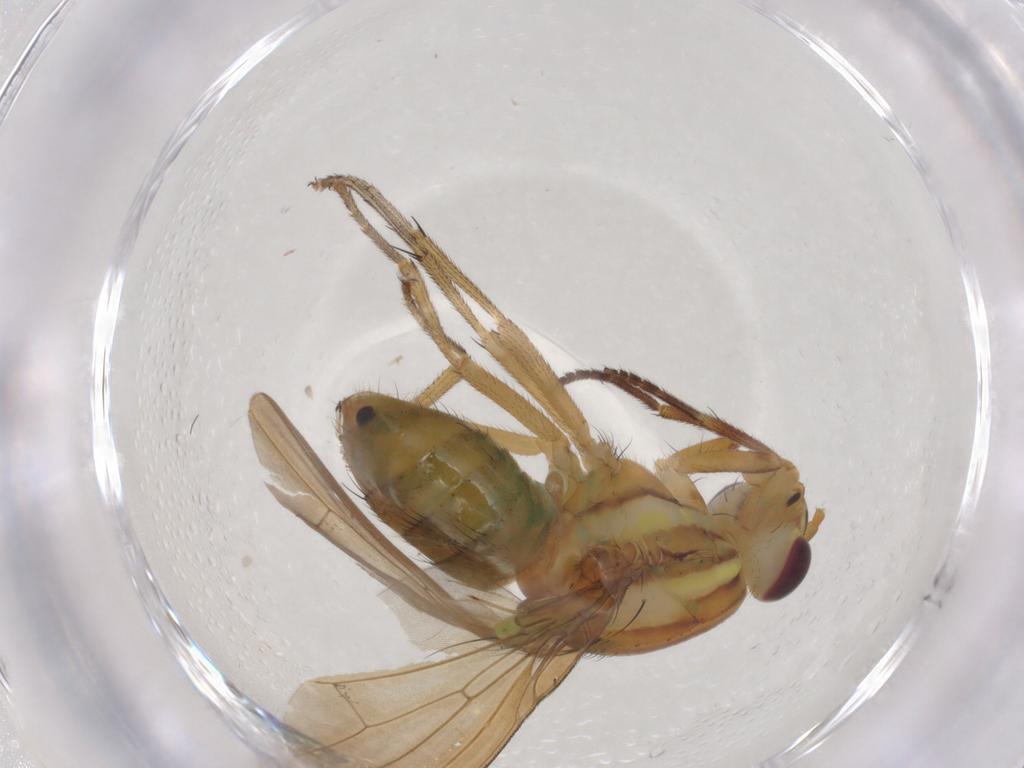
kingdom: Animalia
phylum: Arthropoda
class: Insecta
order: Diptera
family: Lauxaniidae
